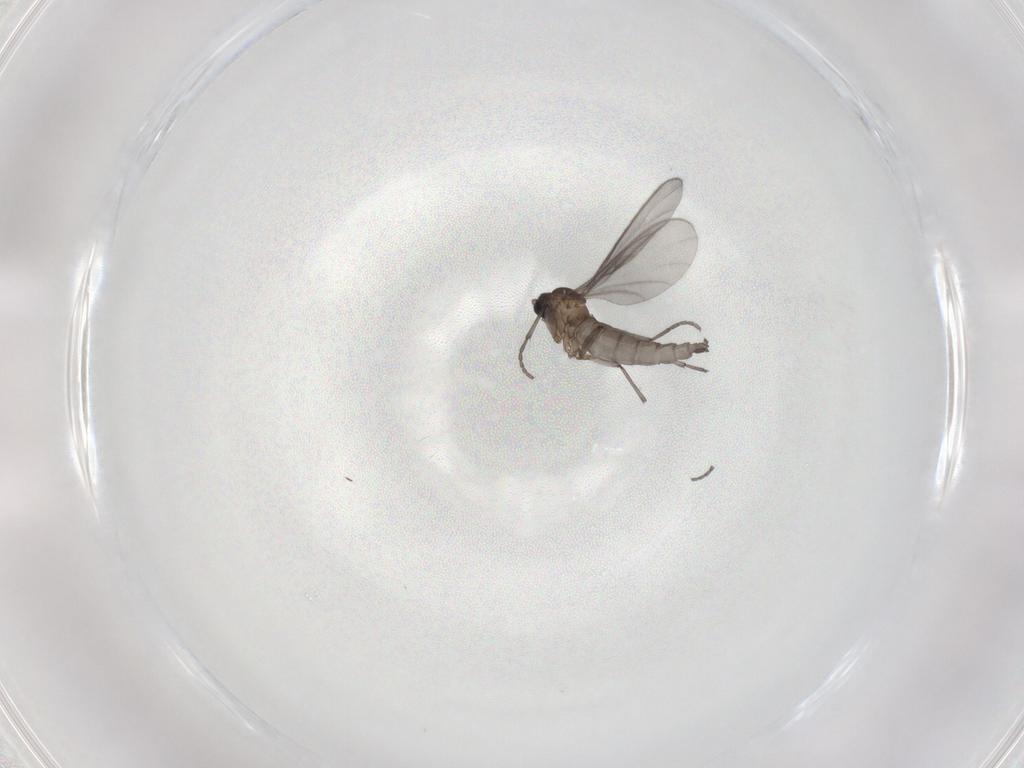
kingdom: Animalia
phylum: Arthropoda
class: Insecta
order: Diptera
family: Sciaridae
